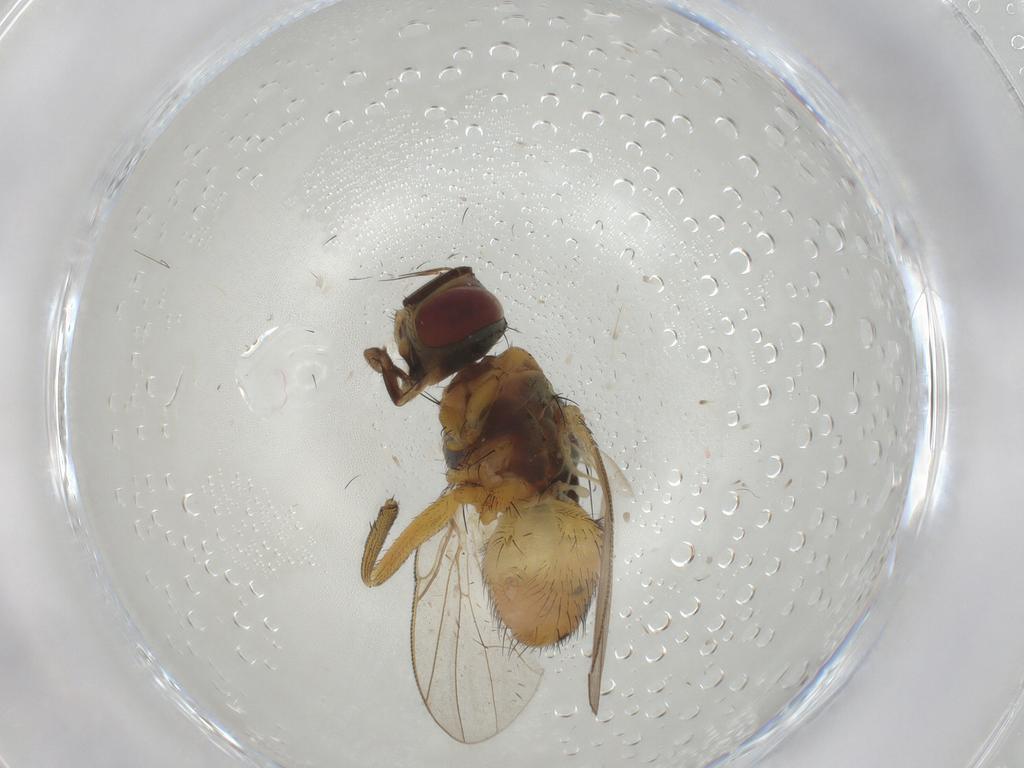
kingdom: Animalia
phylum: Arthropoda
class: Insecta
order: Diptera
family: Muscidae
